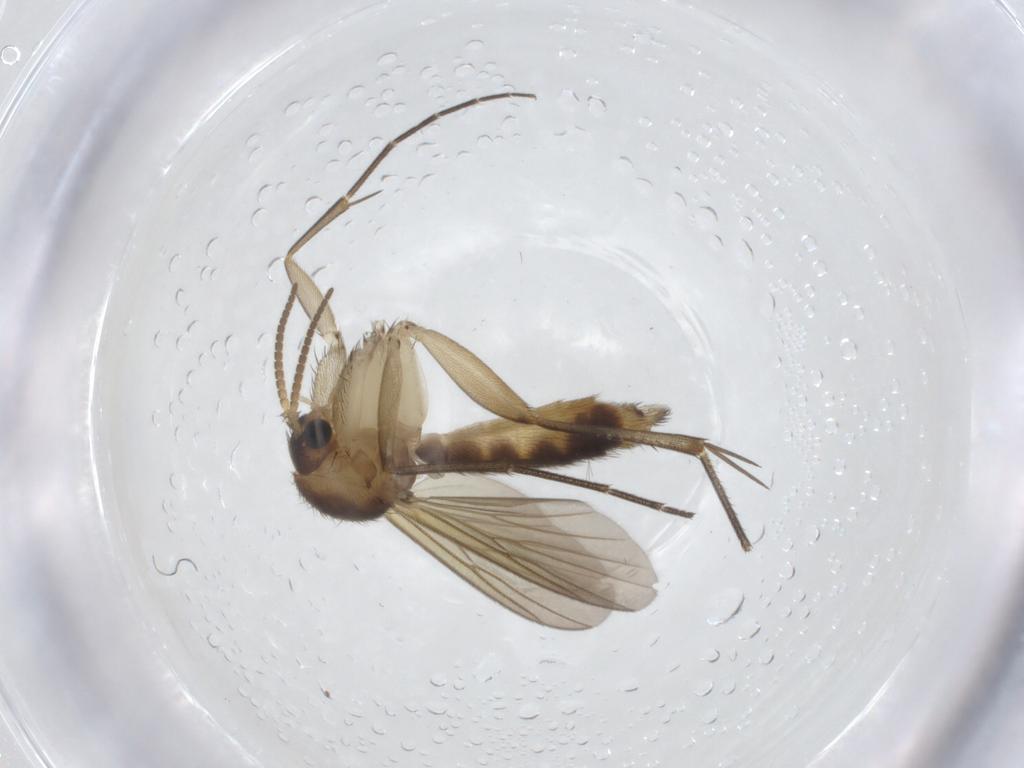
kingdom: Animalia
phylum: Arthropoda
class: Insecta
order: Diptera
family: Mycetophilidae
